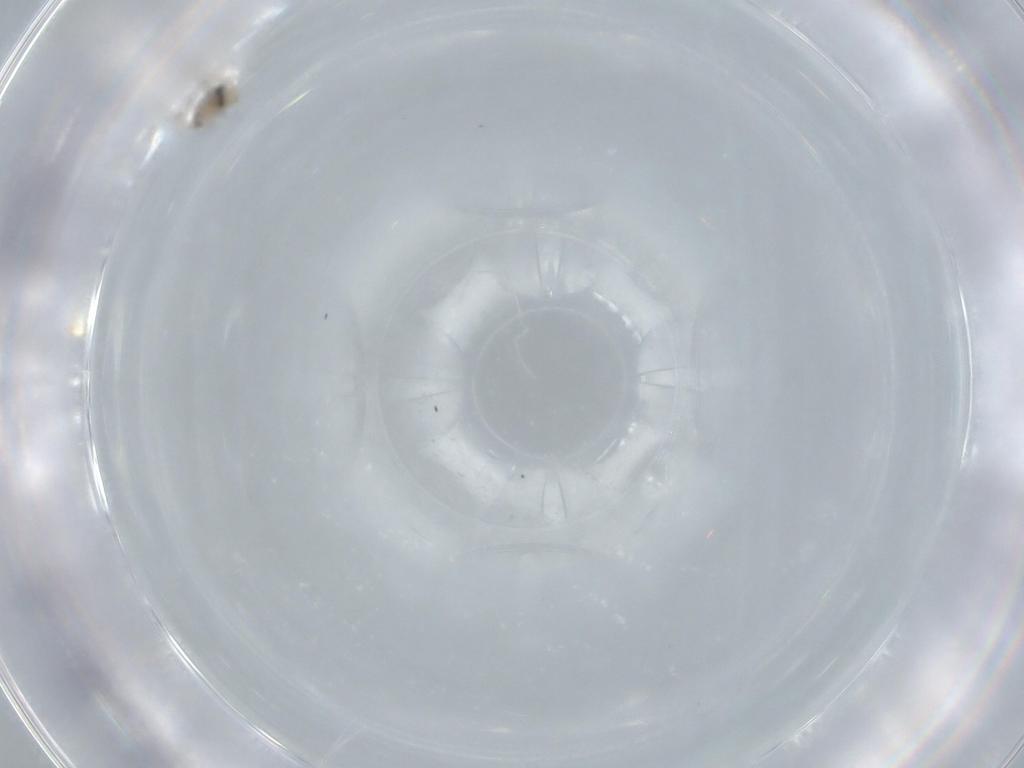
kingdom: Animalia
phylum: Arthropoda
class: Insecta
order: Diptera
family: Cecidomyiidae
